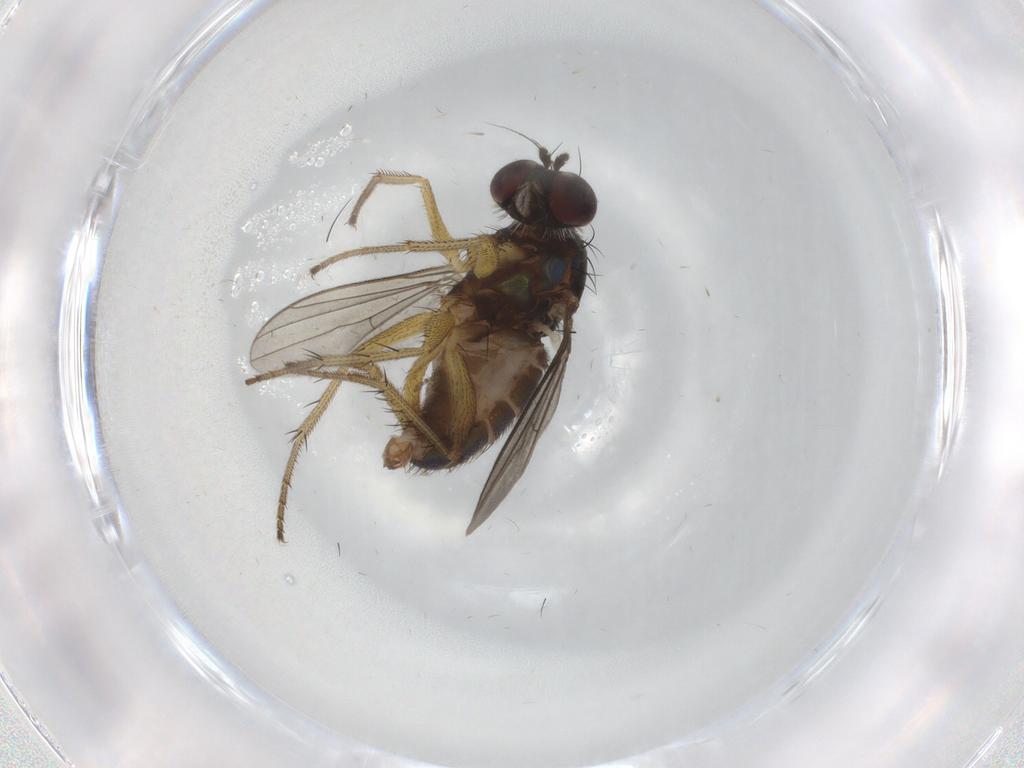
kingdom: Animalia
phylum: Arthropoda
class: Insecta
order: Diptera
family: Dolichopodidae
